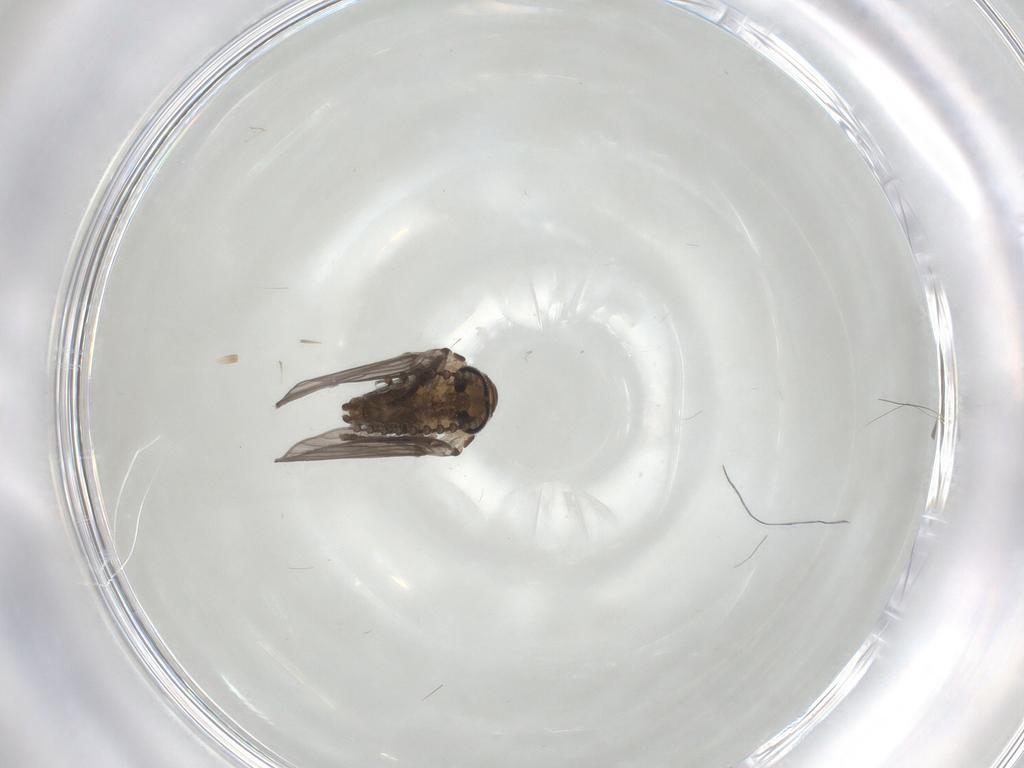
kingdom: Animalia
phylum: Arthropoda
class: Insecta
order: Diptera
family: Psychodidae
